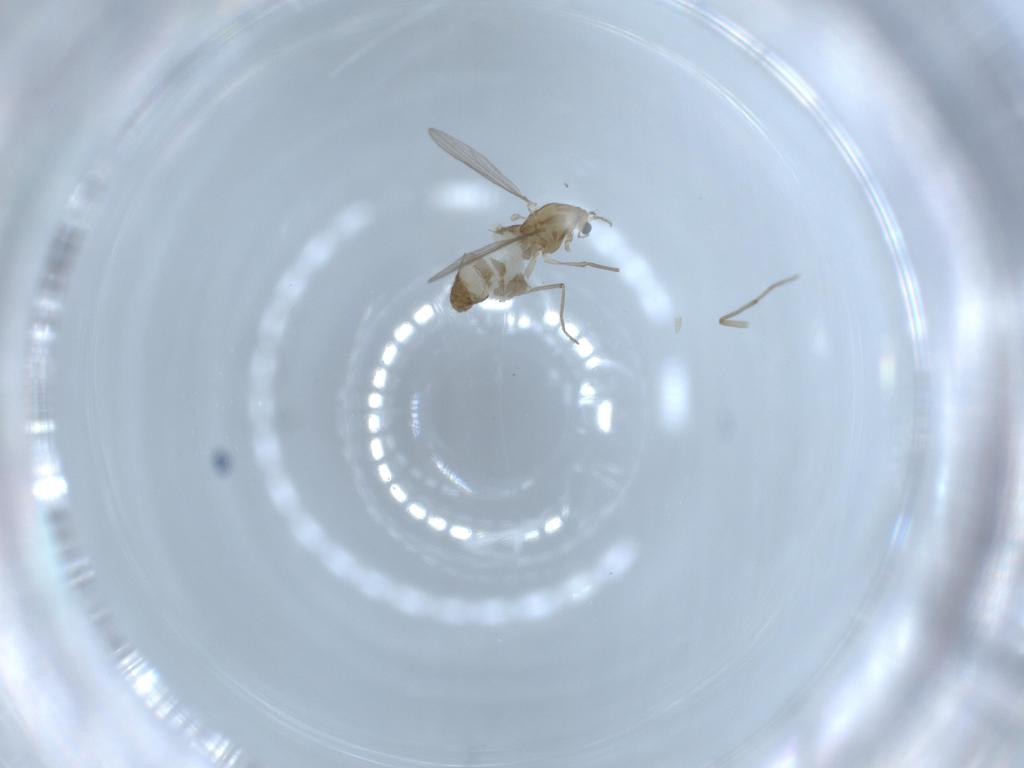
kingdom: Animalia
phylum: Arthropoda
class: Insecta
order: Diptera
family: Chironomidae
